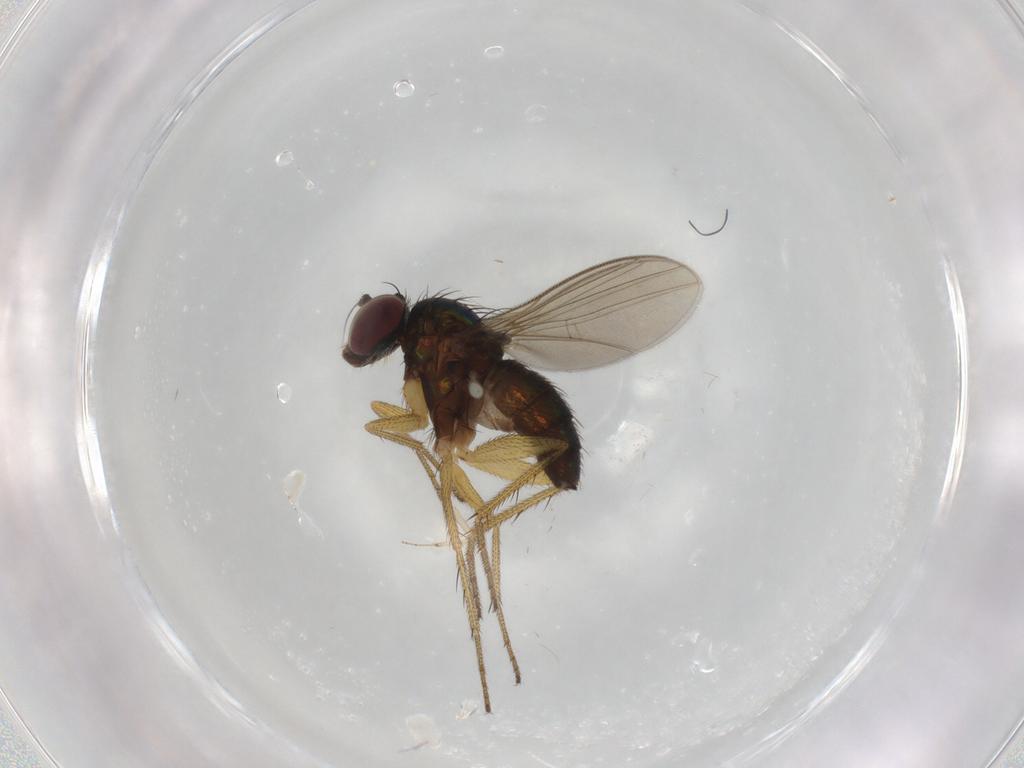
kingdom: Animalia
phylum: Arthropoda
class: Insecta
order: Diptera
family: Dolichopodidae
